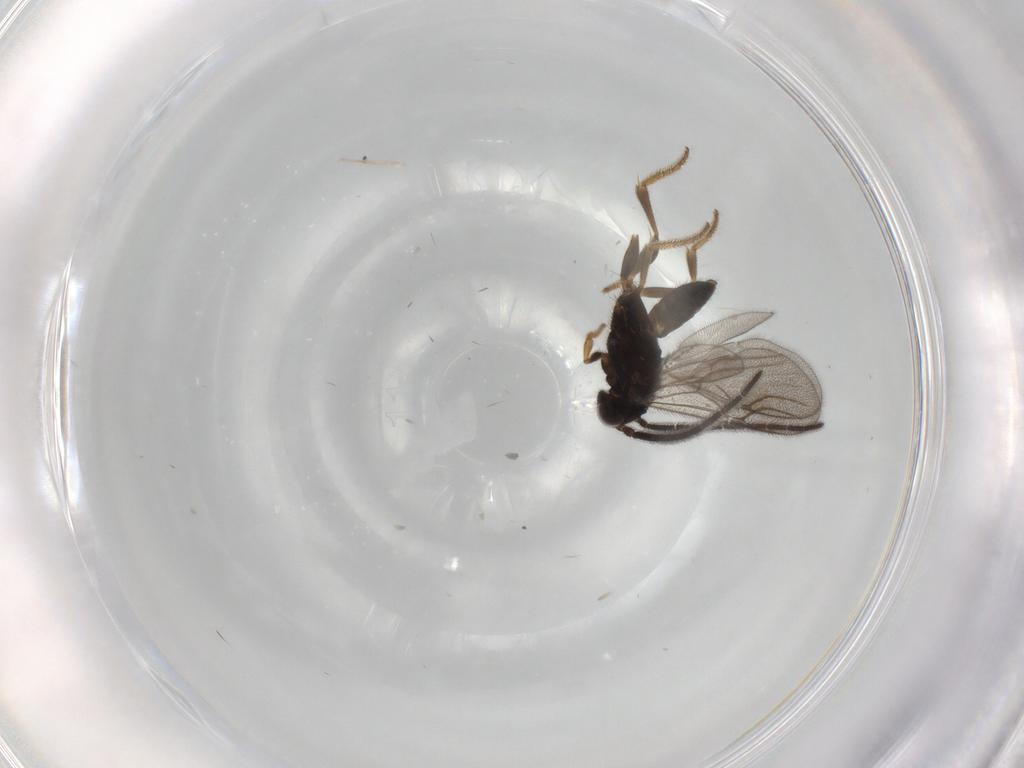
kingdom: Animalia
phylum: Arthropoda
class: Insecta
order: Hymenoptera
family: Dryinidae
